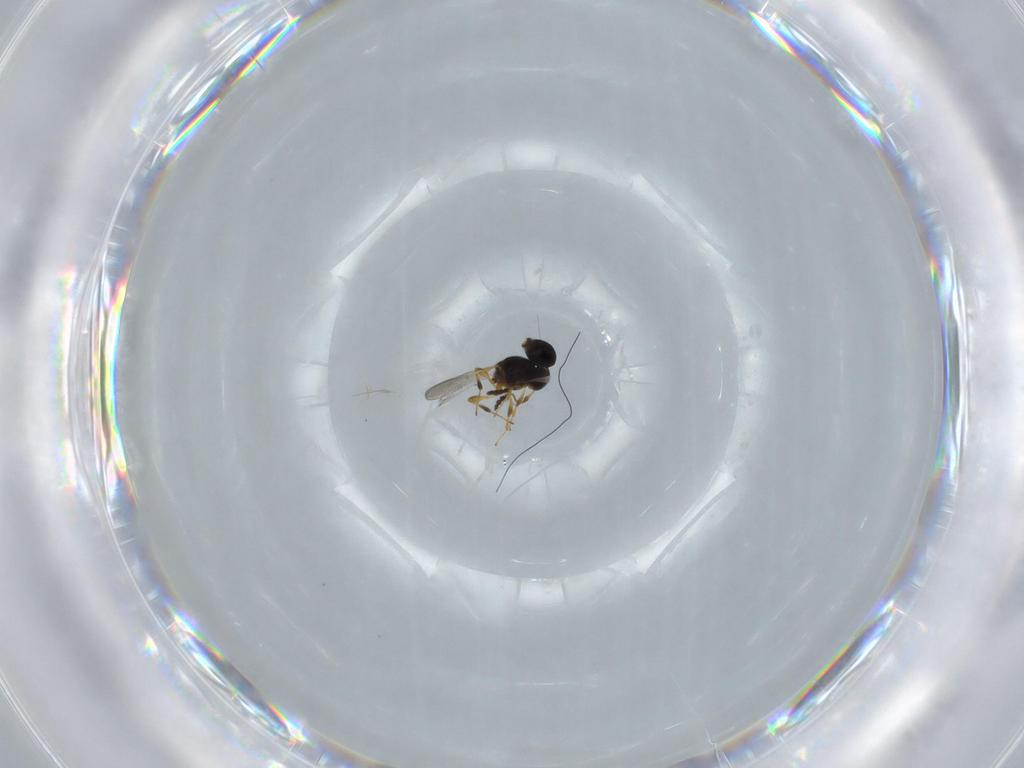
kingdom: Animalia
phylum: Arthropoda
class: Insecta
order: Hymenoptera
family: Platygastridae
